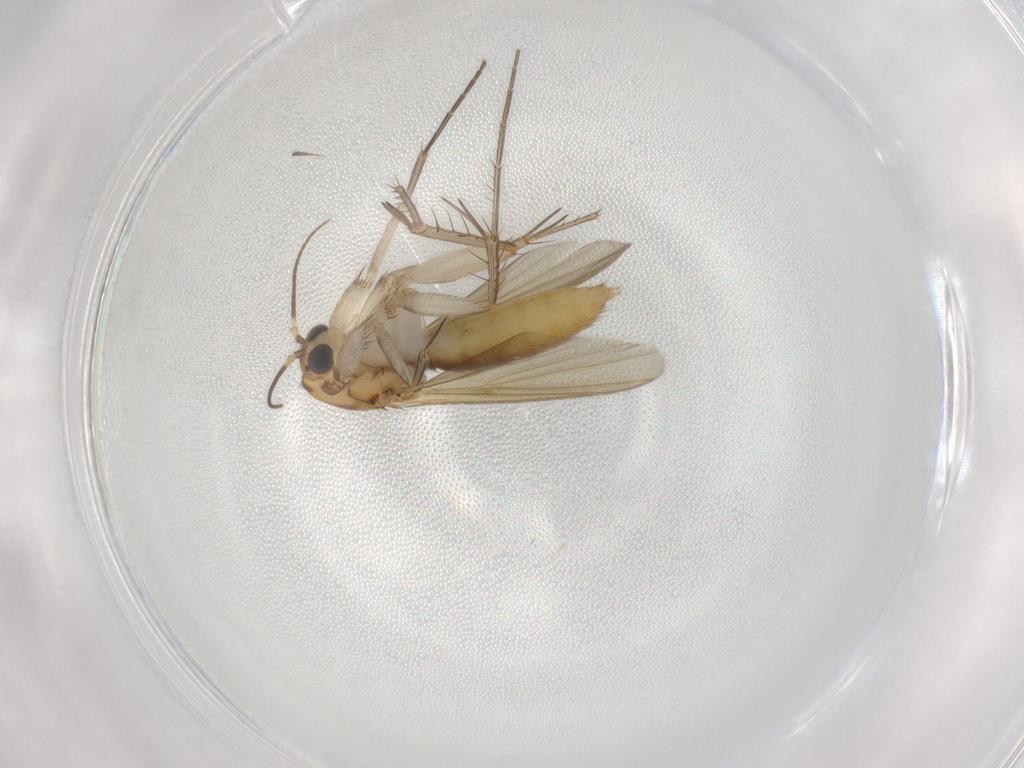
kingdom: Animalia
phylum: Arthropoda
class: Insecta
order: Diptera
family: Mycetophilidae
